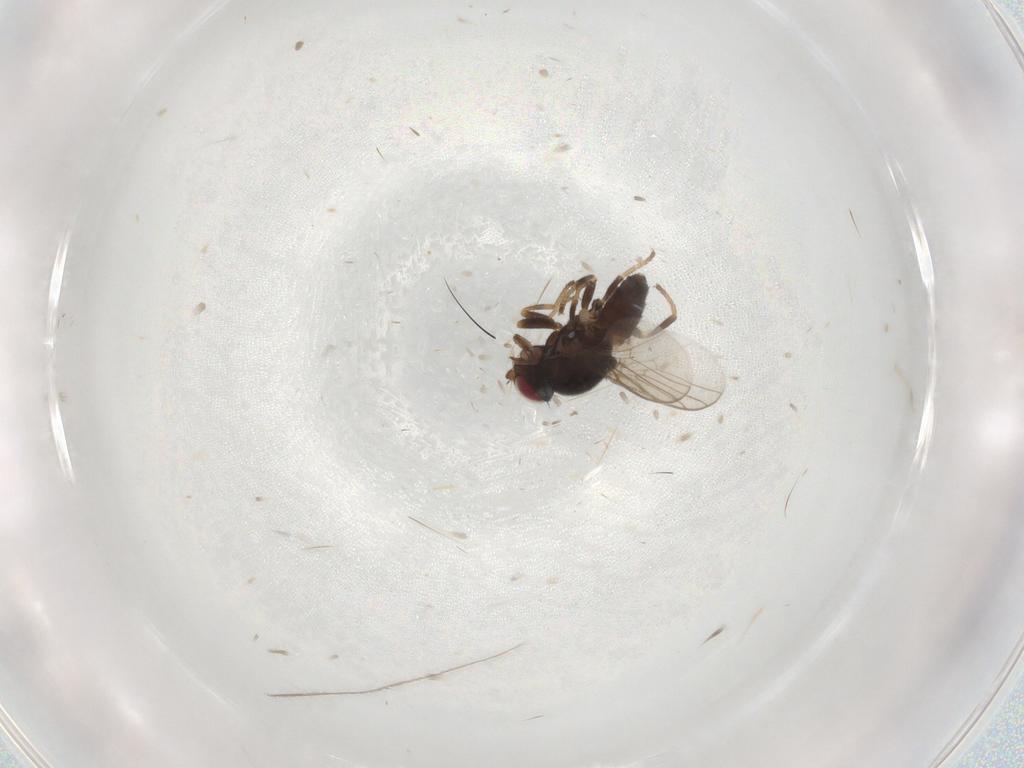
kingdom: Animalia
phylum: Arthropoda
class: Insecta
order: Diptera
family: Chloropidae
